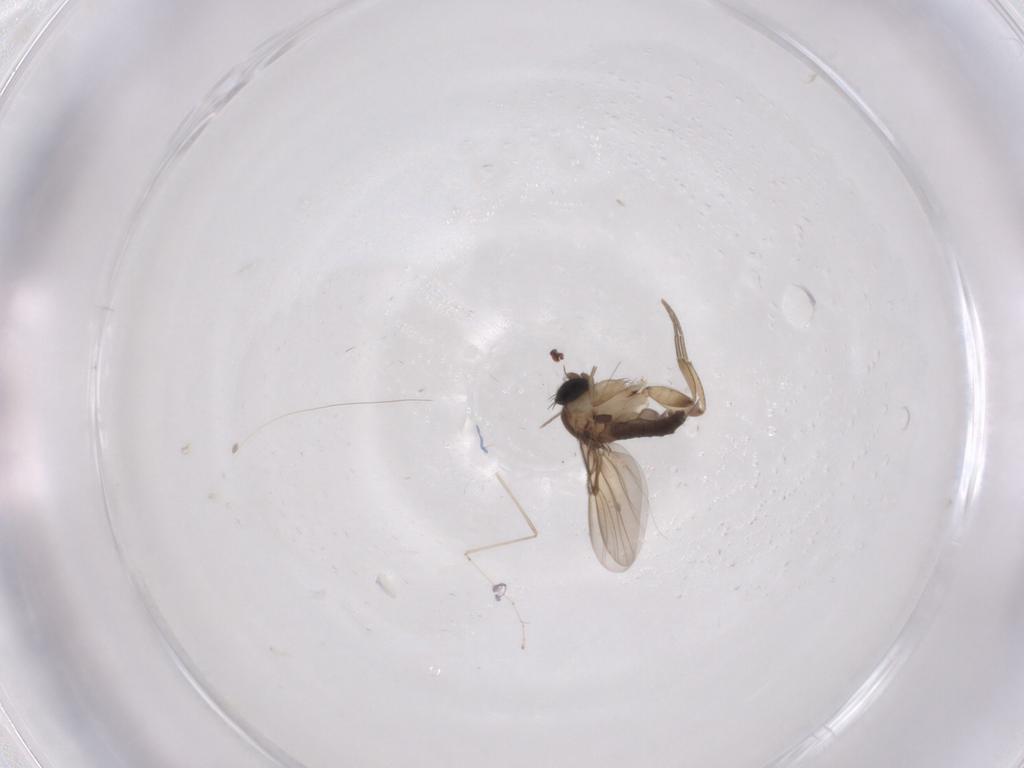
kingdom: Animalia
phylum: Arthropoda
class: Insecta
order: Diptera
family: Phoridae
